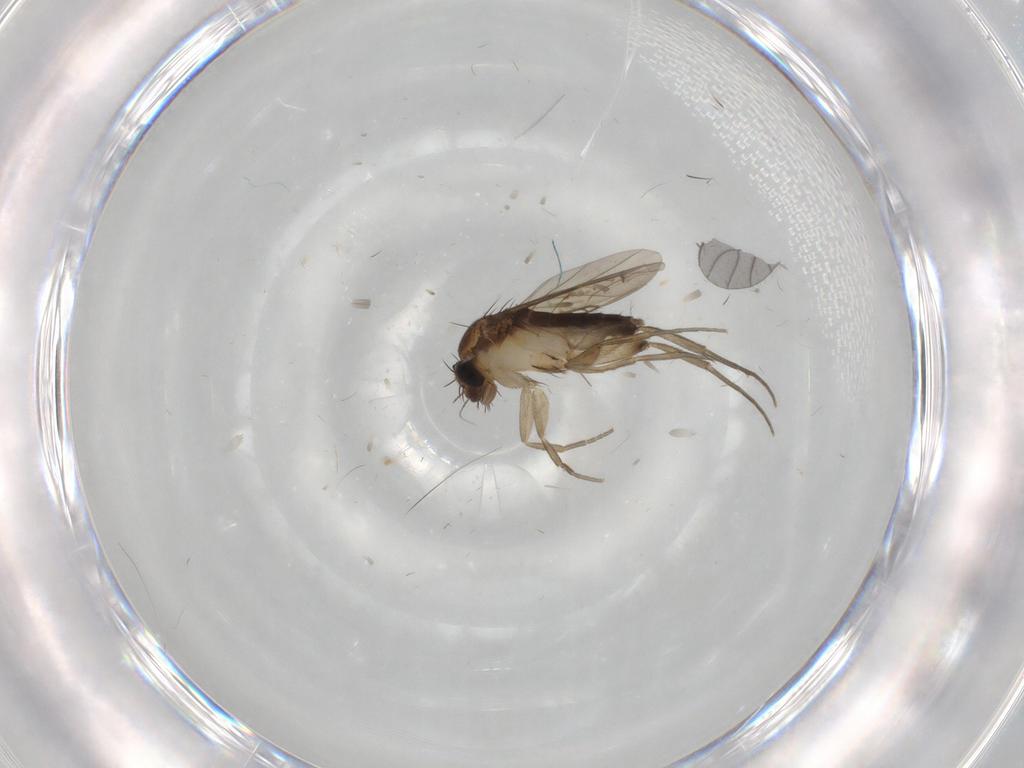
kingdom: Animalia
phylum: Arthropoda
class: Insecta
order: Diptera
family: Phoridae
